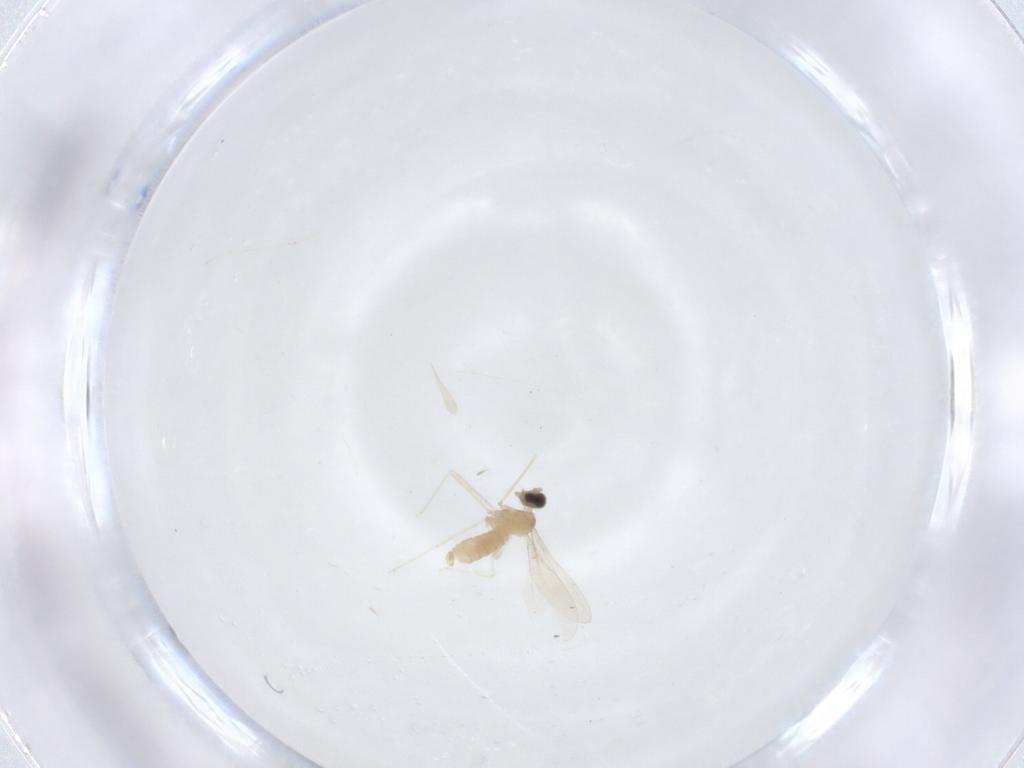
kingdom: Animalia
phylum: Arthropoda
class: Insecta
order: Diptera
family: Cecidomyiidae
